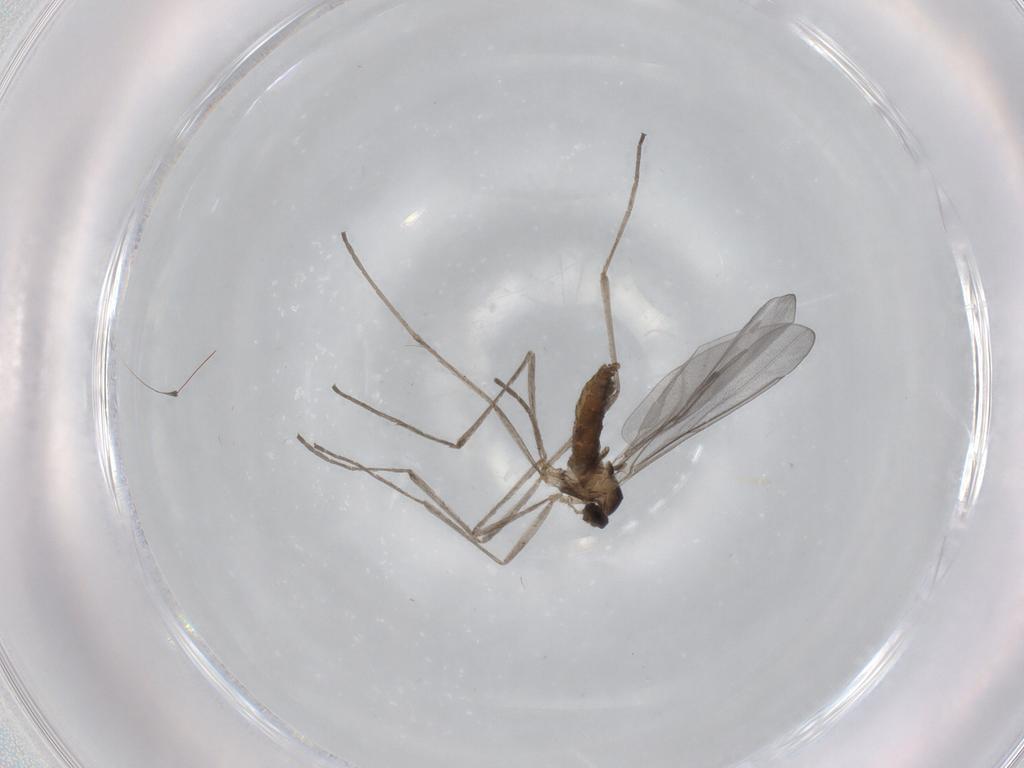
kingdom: Animalia
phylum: Arthropoda
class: Insecta
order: Diptera
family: Cecidomyiidae
